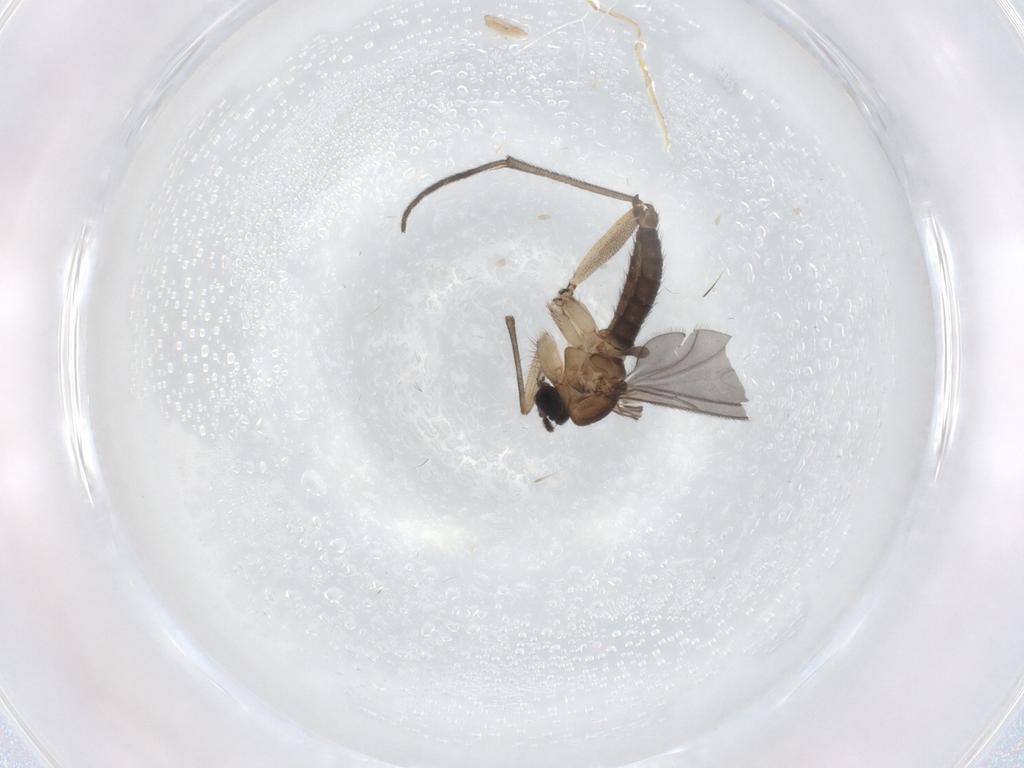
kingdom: Animalia
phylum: Arthropoda
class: Insecta
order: Diptera
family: Sciaridae
